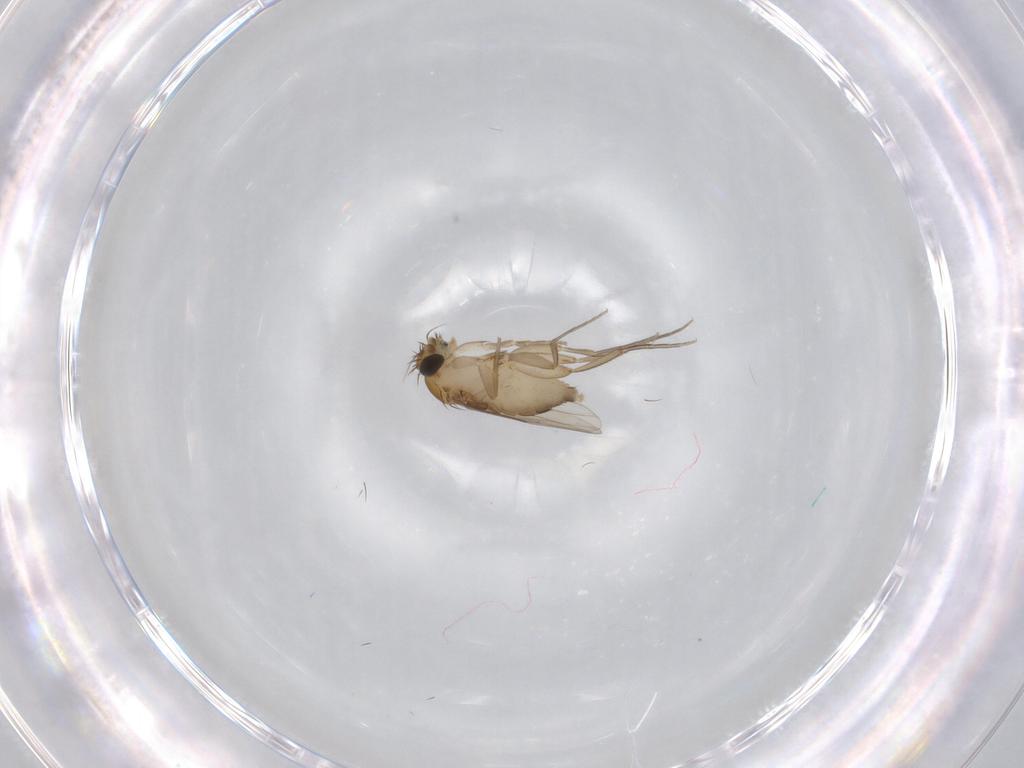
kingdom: Animalia
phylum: Arthropoda
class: Insecta
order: Diptera
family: Phoridae
